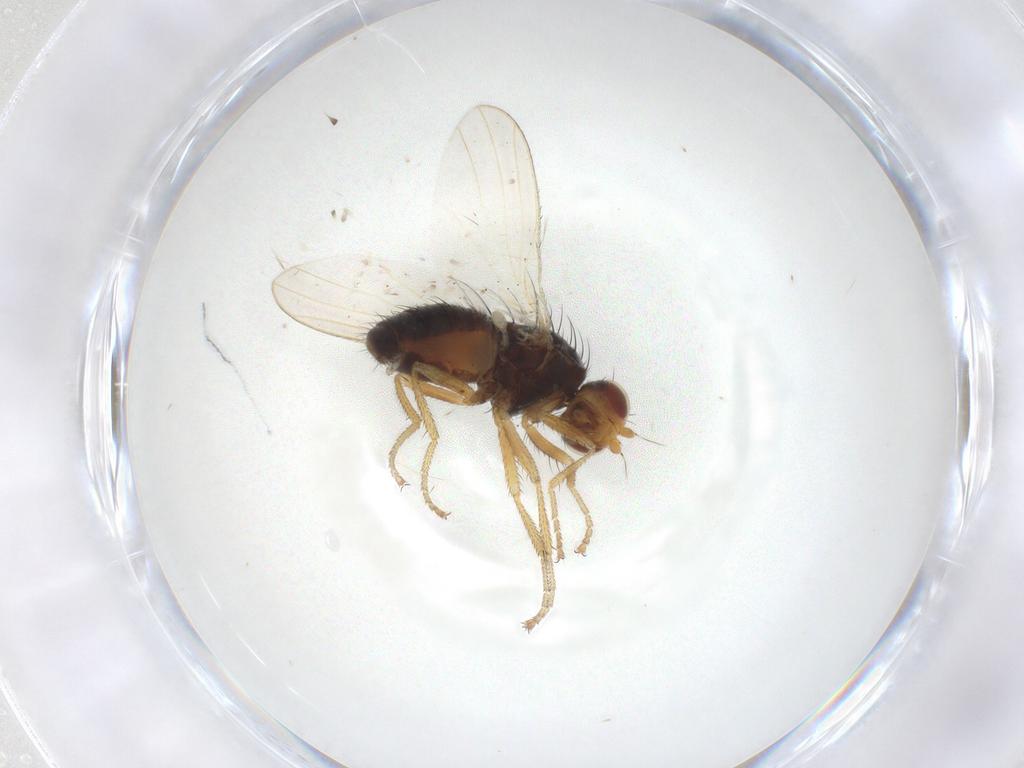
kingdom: Animalia
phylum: Arthropoda
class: Insecta
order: Diptera
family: Heleomyzidae
